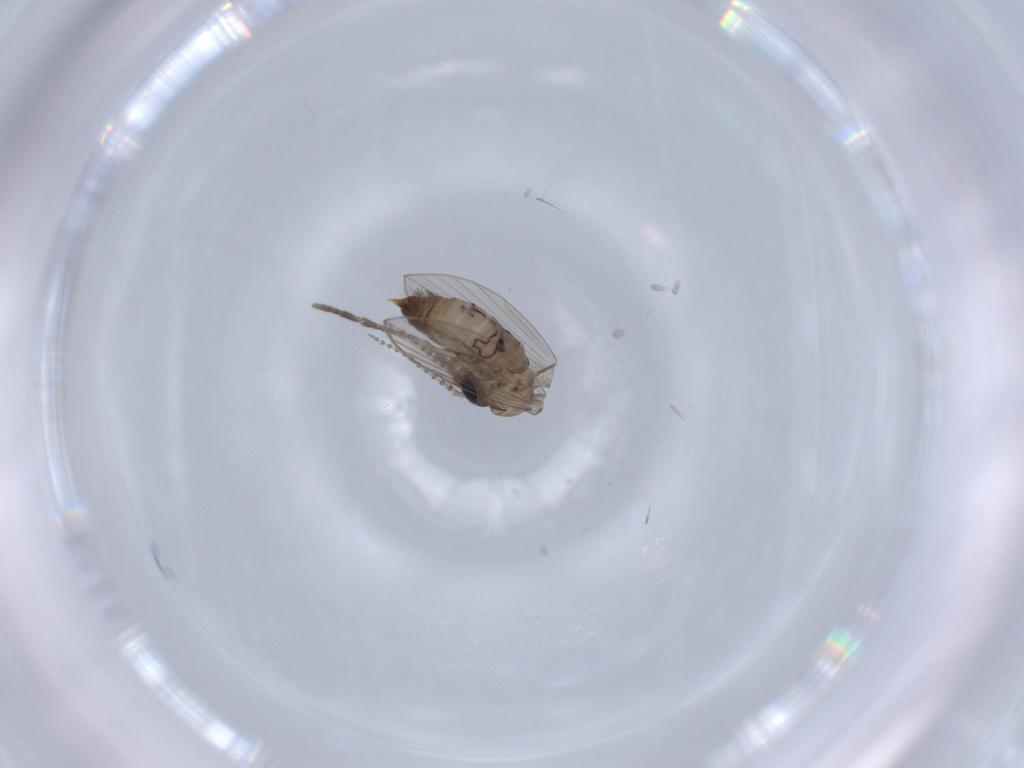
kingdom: Animalia
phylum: Arthropoda
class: Insecta
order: Diptera
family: Psychodidae
